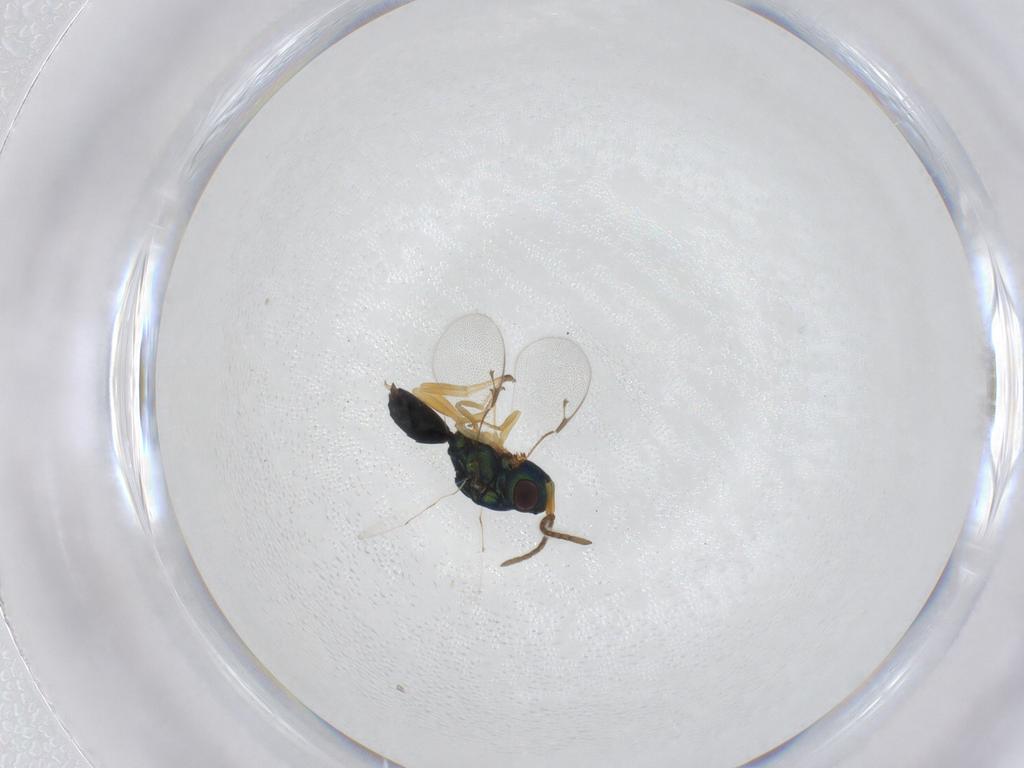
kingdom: Animalia
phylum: Arthropoda
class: Insecta
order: Hymenoptera
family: Pteromalidae
